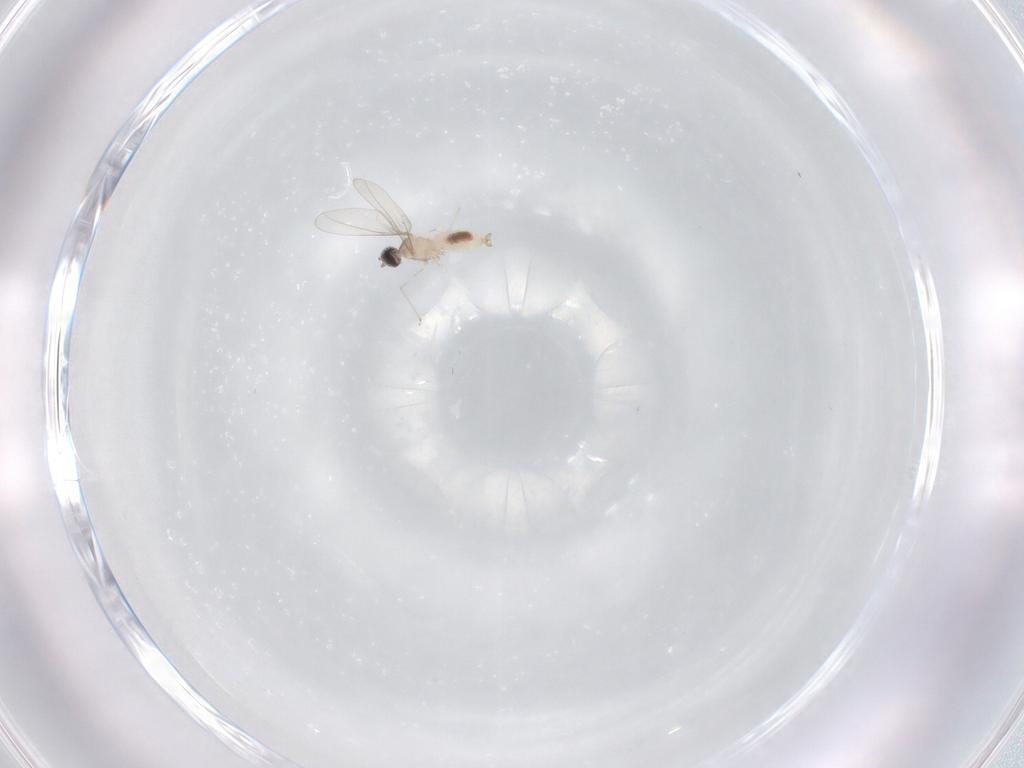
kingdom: Animalia
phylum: Arthropoda
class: Insecta
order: Diptera
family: Cecidomyiidae
